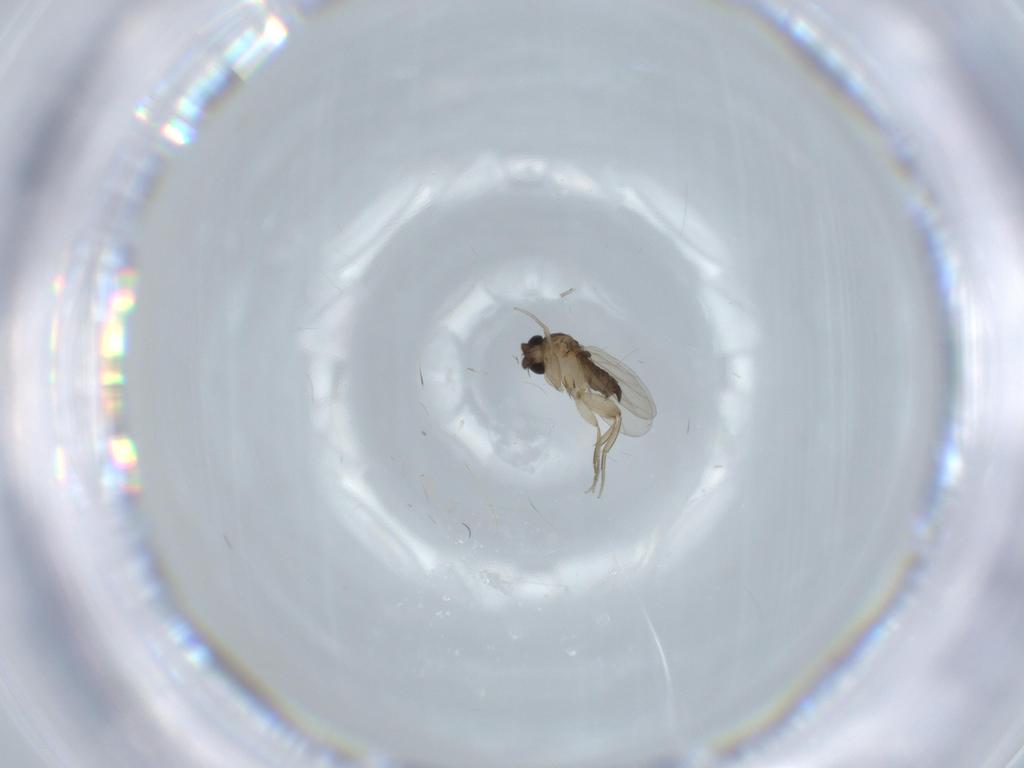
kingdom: Animalia
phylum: Arthropoda
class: Insecta
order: Diptera
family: Phoridae
